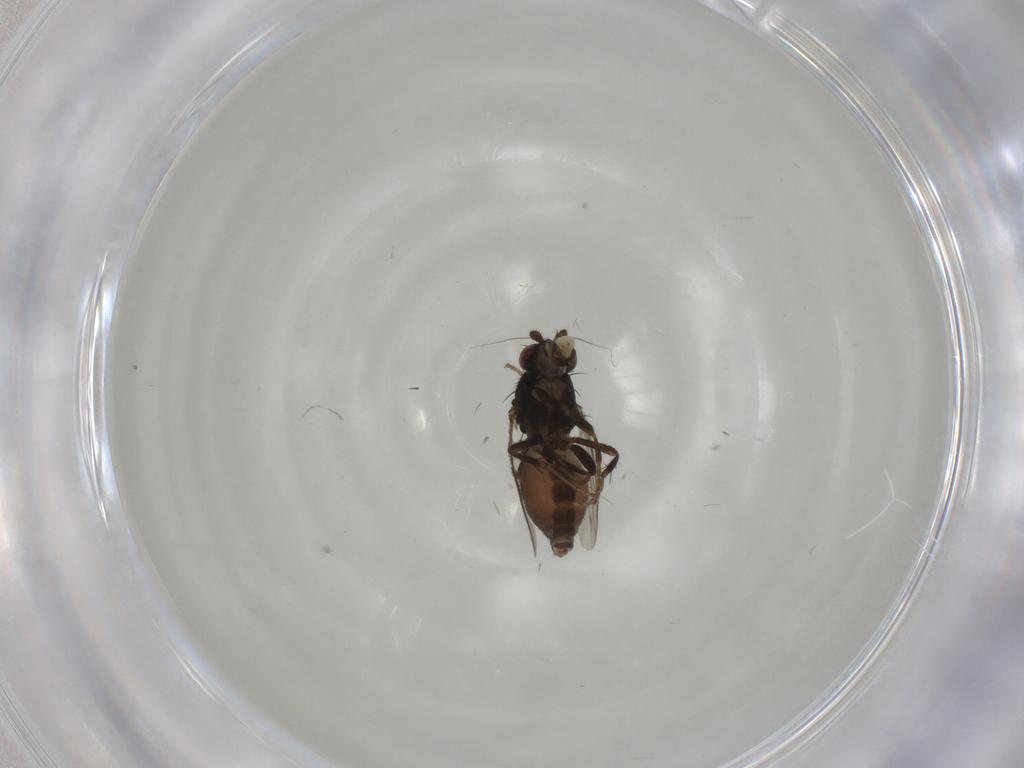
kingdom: Animalia
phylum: Arthropoda
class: Insecta
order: Diptera
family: Sphaeroceridae
